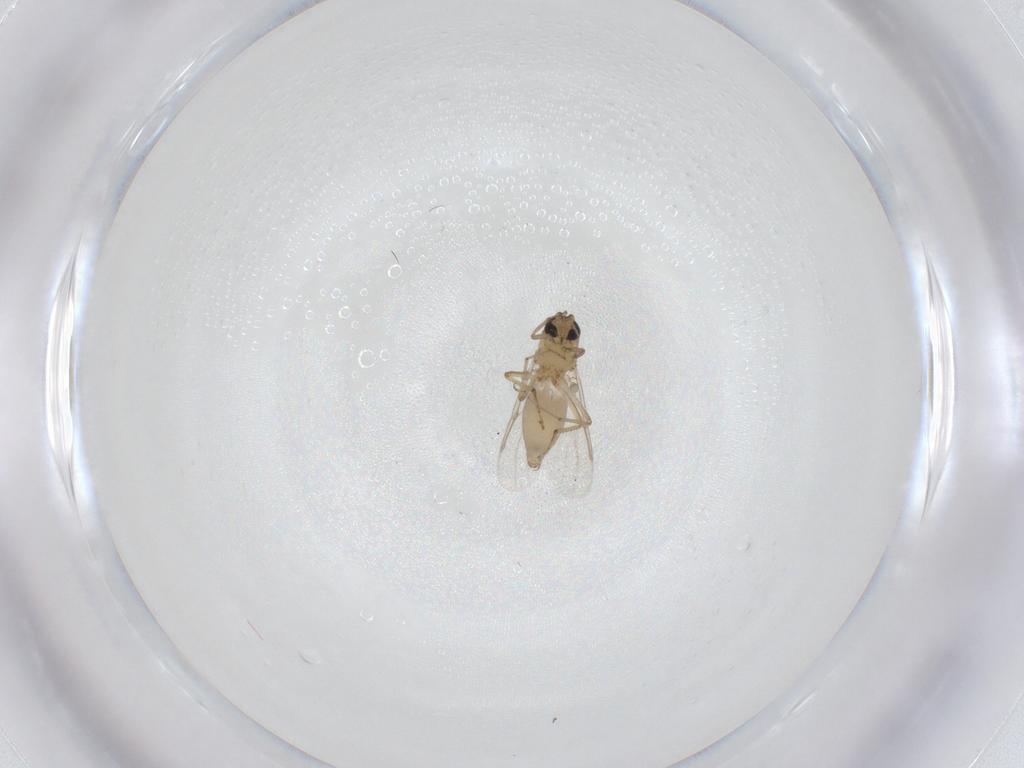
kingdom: Animalia
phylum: Arthropoda
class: Insecta
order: Diptera
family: Ceratopogonidae
